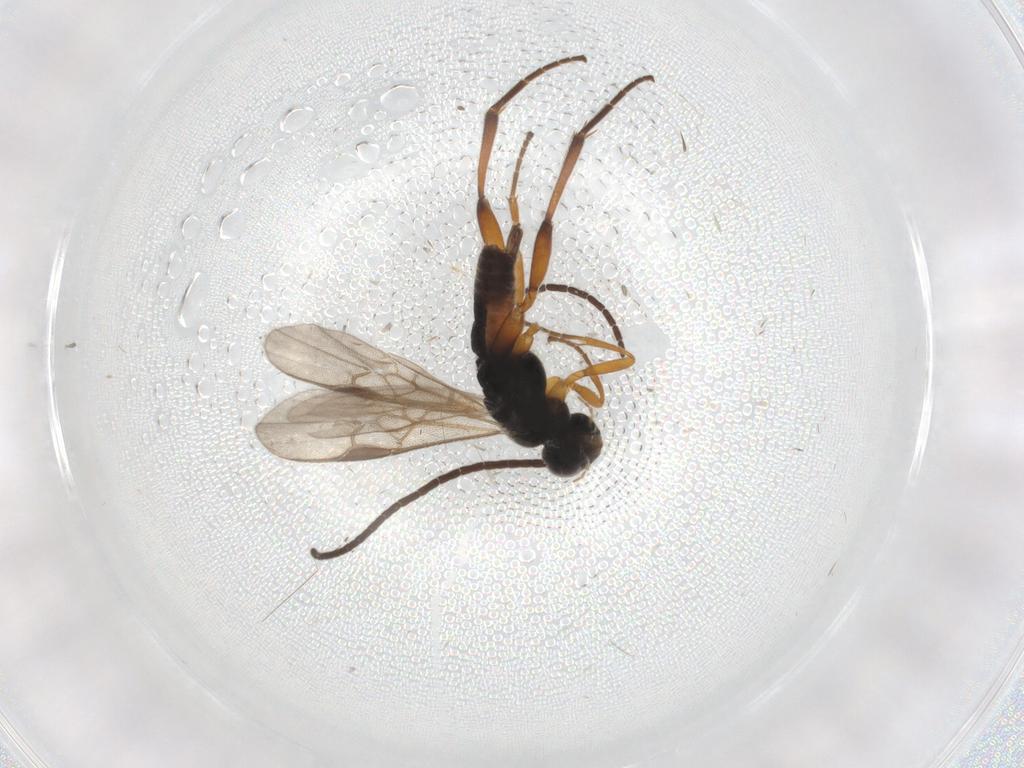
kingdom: Animalia
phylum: Arthropoda
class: Insecta
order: Hymenoptera
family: Braconidae
